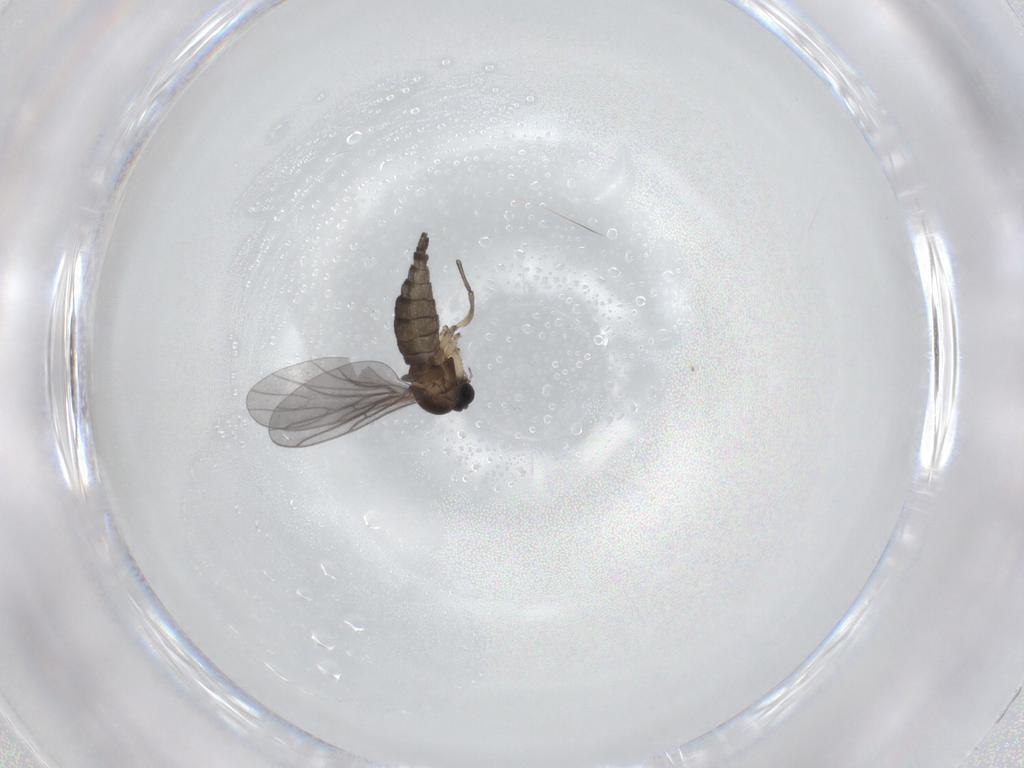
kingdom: Animalia
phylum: Arthropoda
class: Insecta
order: Diptera
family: Sciaridae
